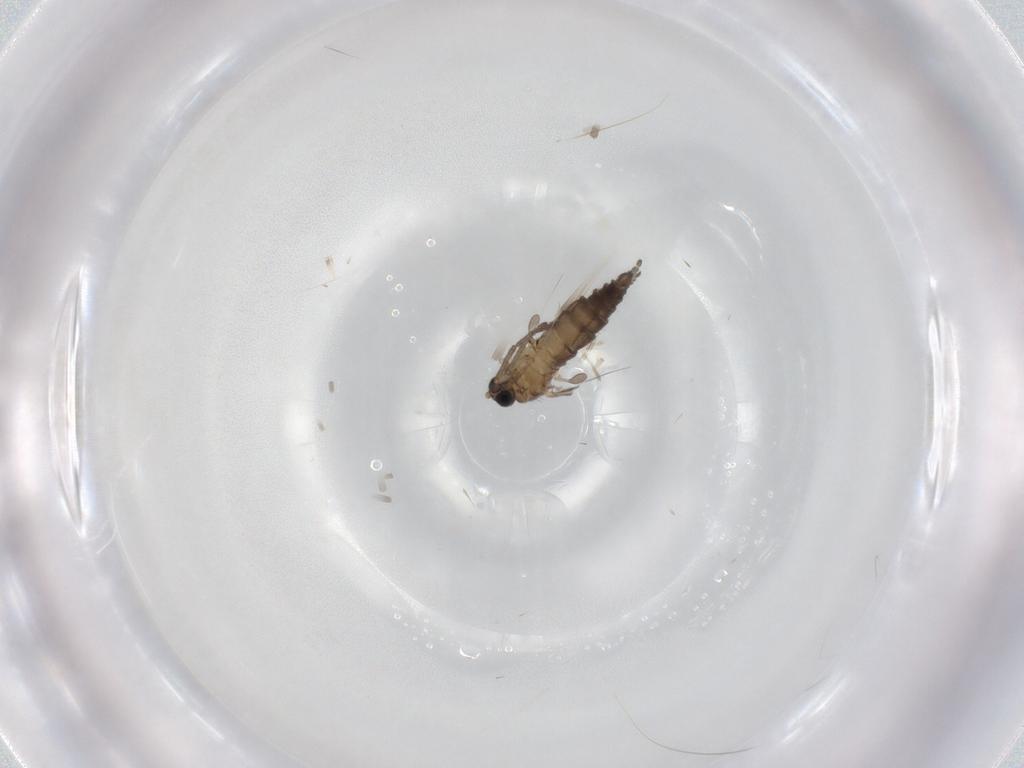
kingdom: Animalia
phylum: Arthropoda
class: Insecta
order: Diptera
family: Sciaridae
